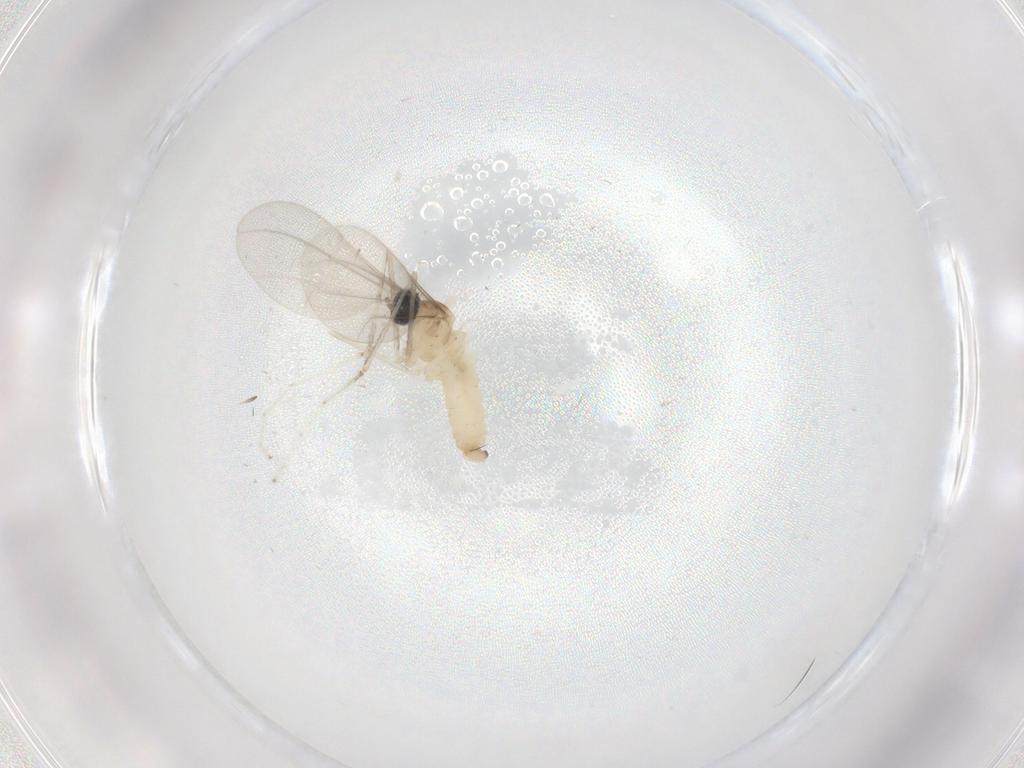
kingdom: Animalia
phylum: Arthropoda
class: Insecta
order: Diptera
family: Cecidomyiidae
